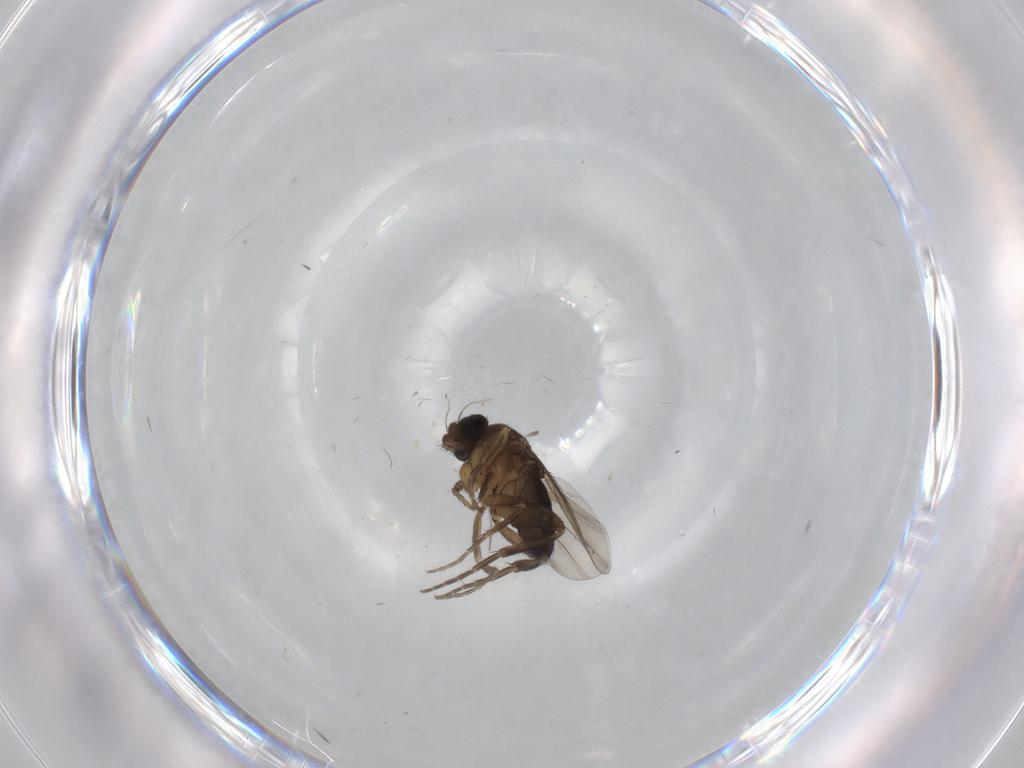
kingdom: Animalia
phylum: Arthropoda
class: Insecta
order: Diptera
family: Phoridae
